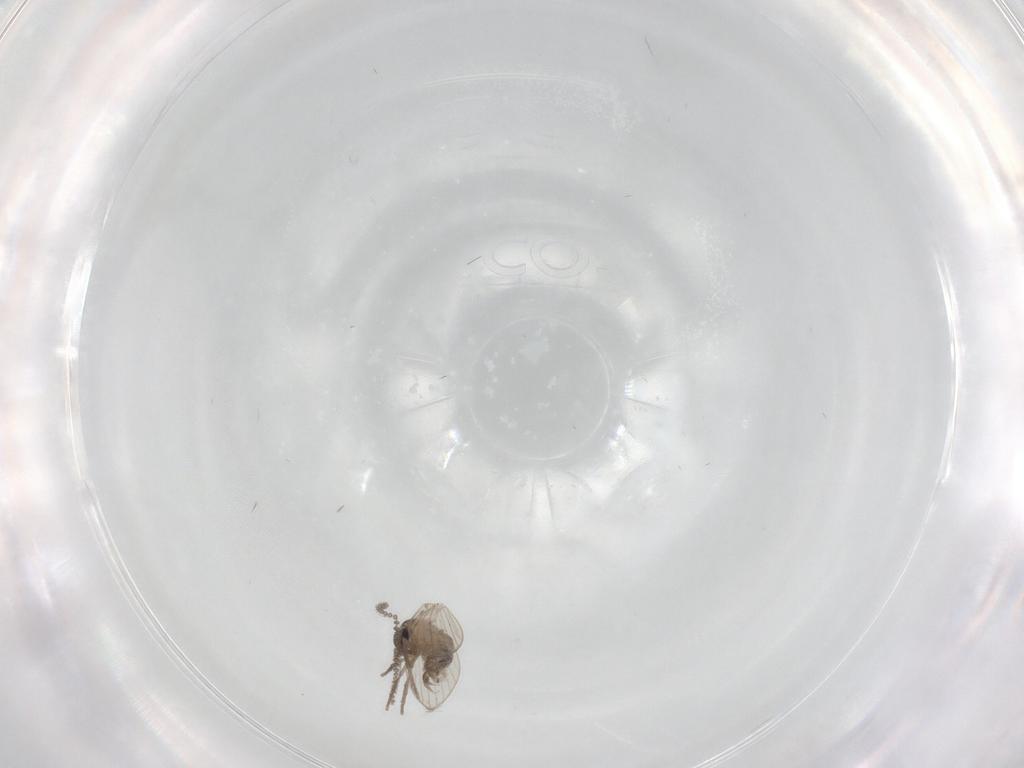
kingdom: Animalia
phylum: Arthropoda
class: Insecta
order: Diptera
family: Psychodidae
